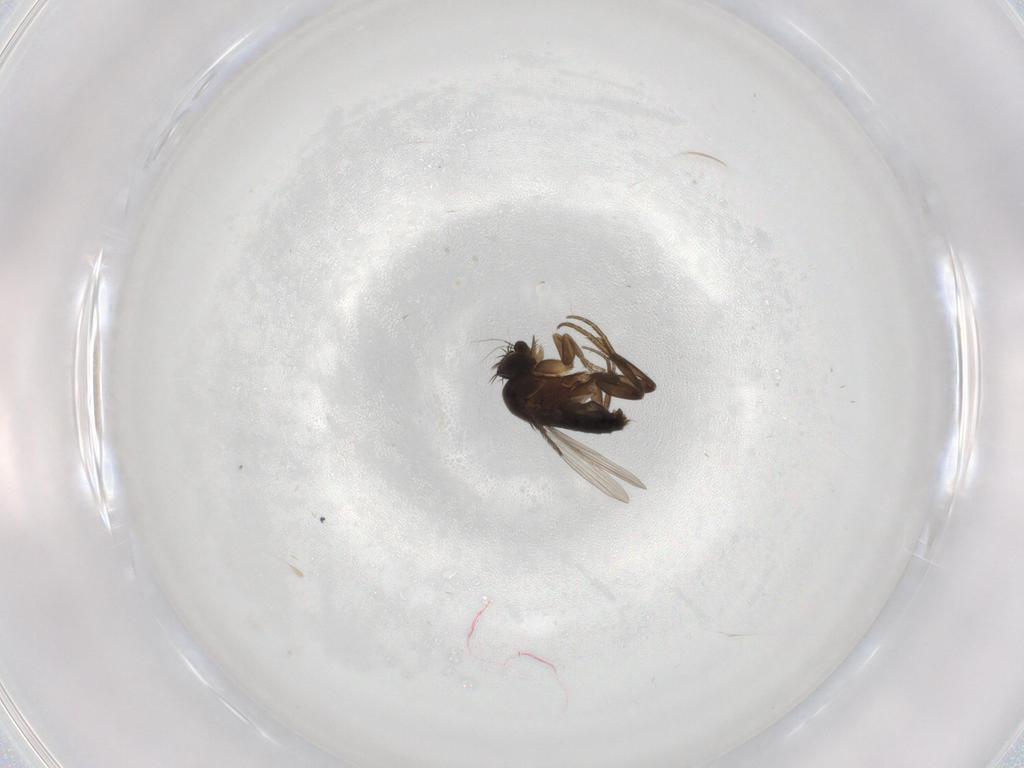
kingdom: Animalia
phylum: Arthropoda
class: Insecta
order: Diptera
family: Phoridae
